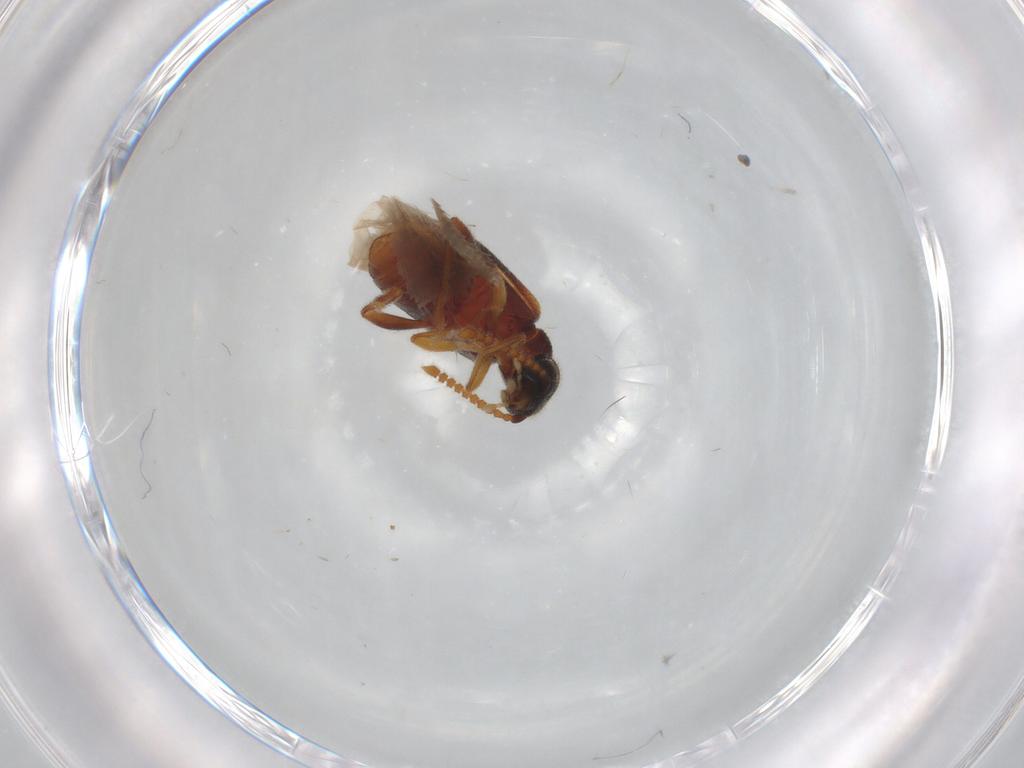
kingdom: Animalia
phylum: Arthropoda
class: Insecta
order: Coleoptera
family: Aderidae
